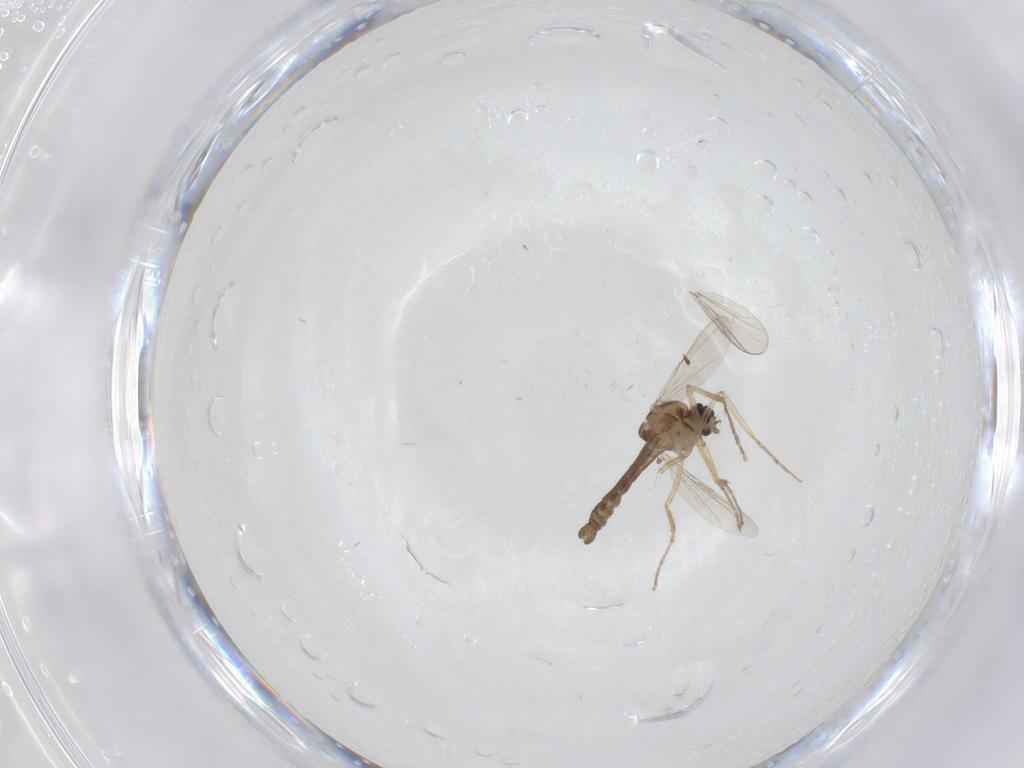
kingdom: Animalia
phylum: Arthropoda
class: Insecta
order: Diptera
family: Ceratopogonidae
